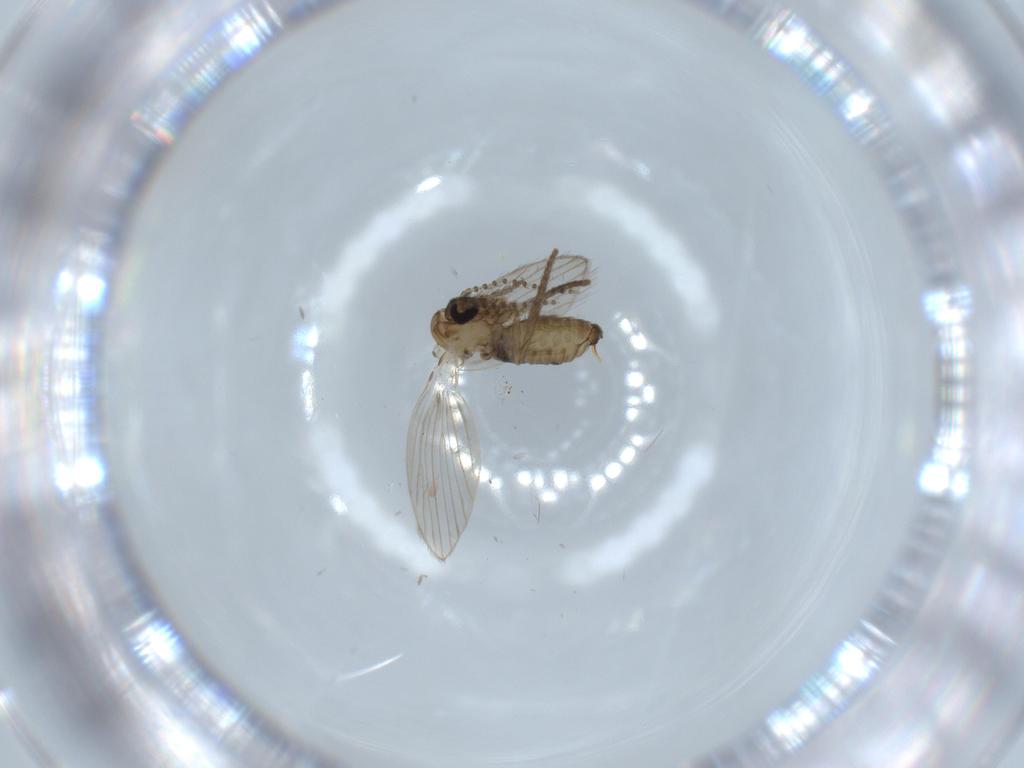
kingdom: Animalia
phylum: Arthropoda
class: Insecta
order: Diptera
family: Psychodidae
